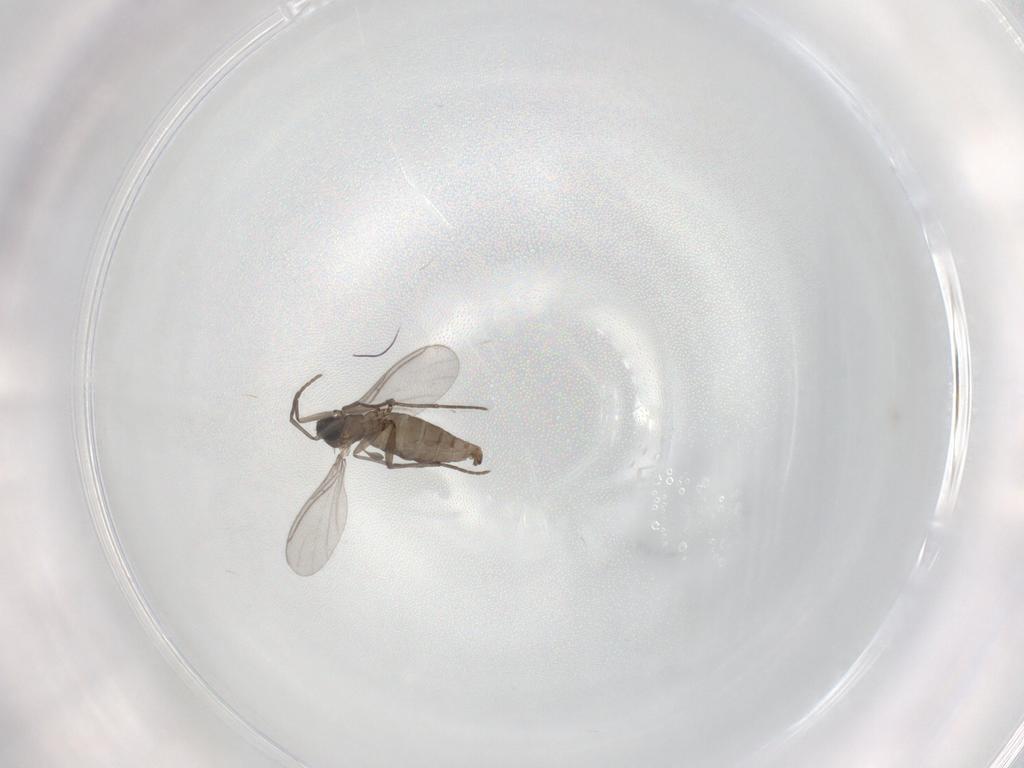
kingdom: Animalia
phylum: Arthropoda
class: Insecta
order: Diptera
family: Sciaridae
